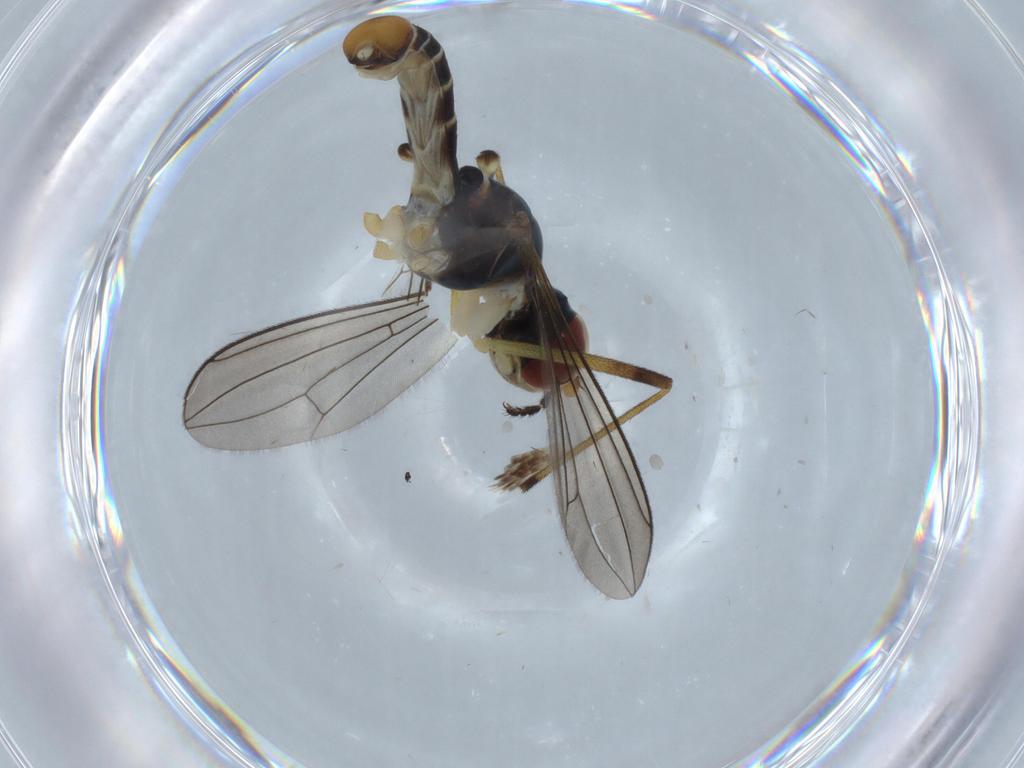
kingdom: Animalia
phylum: Arthropoda
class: Insecta
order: Diptera
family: Micropezidae
